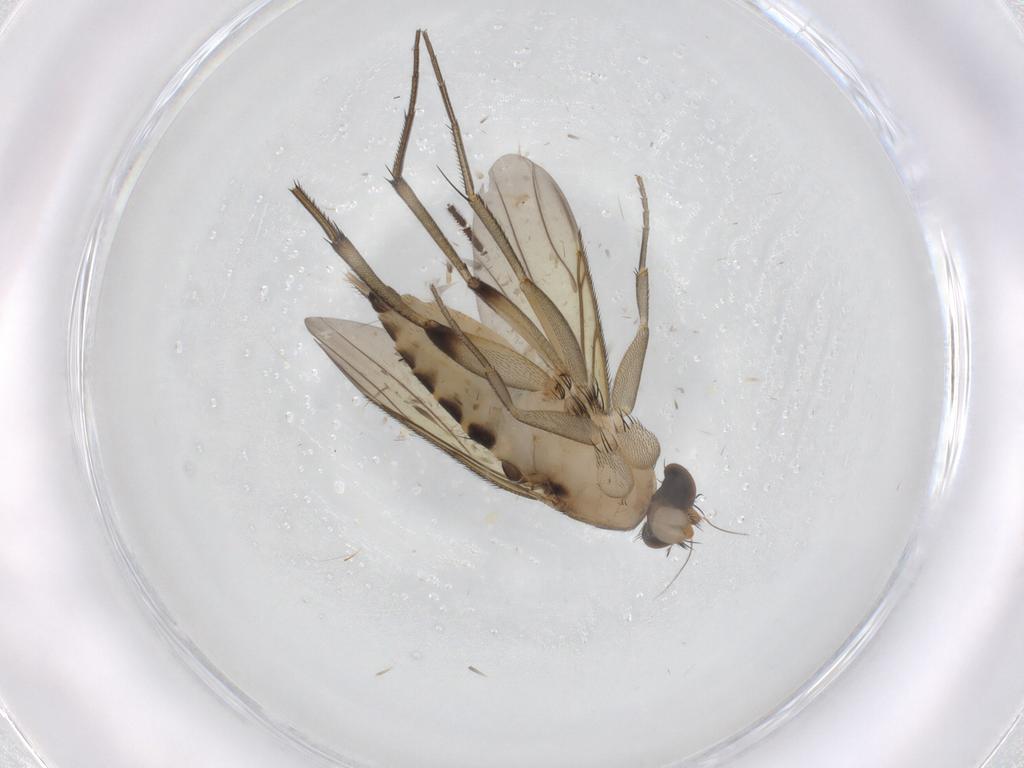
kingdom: Animalia
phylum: Arthropoda
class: Insecta
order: Diptera
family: Sciaridae
